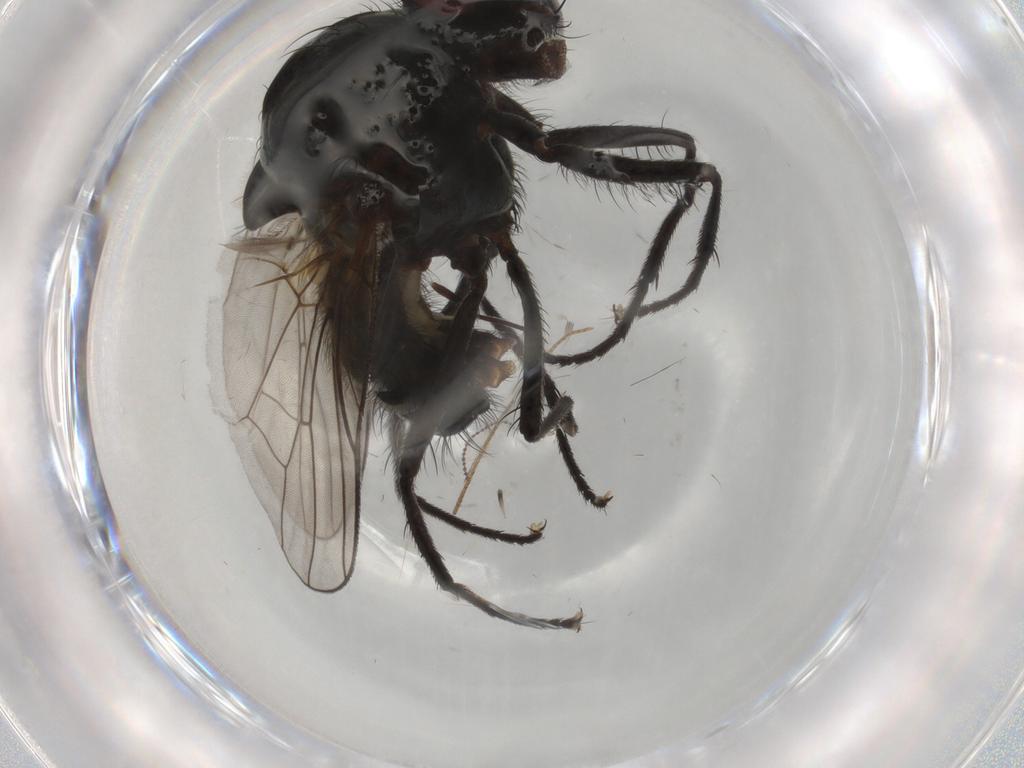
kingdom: Animalia
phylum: Arthropoda
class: Insecta
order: Diptera
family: Anthomyiidae
